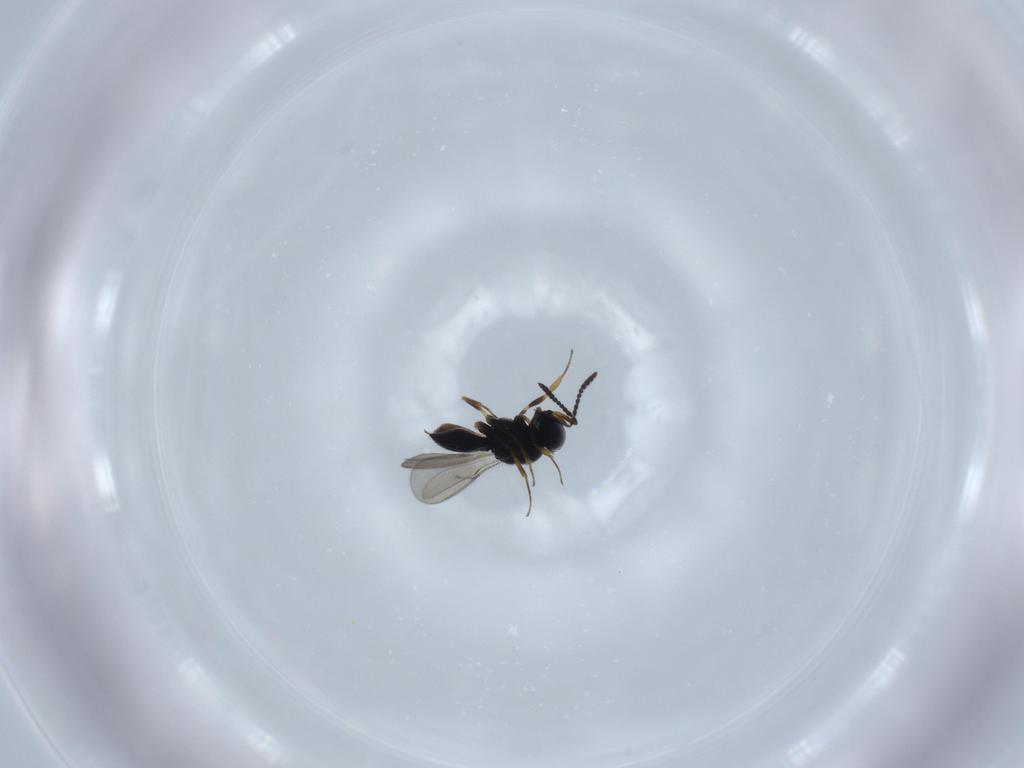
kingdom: Animalia
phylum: Arthropoda
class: Insecta
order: Hymenoptera
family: Scelionidae
